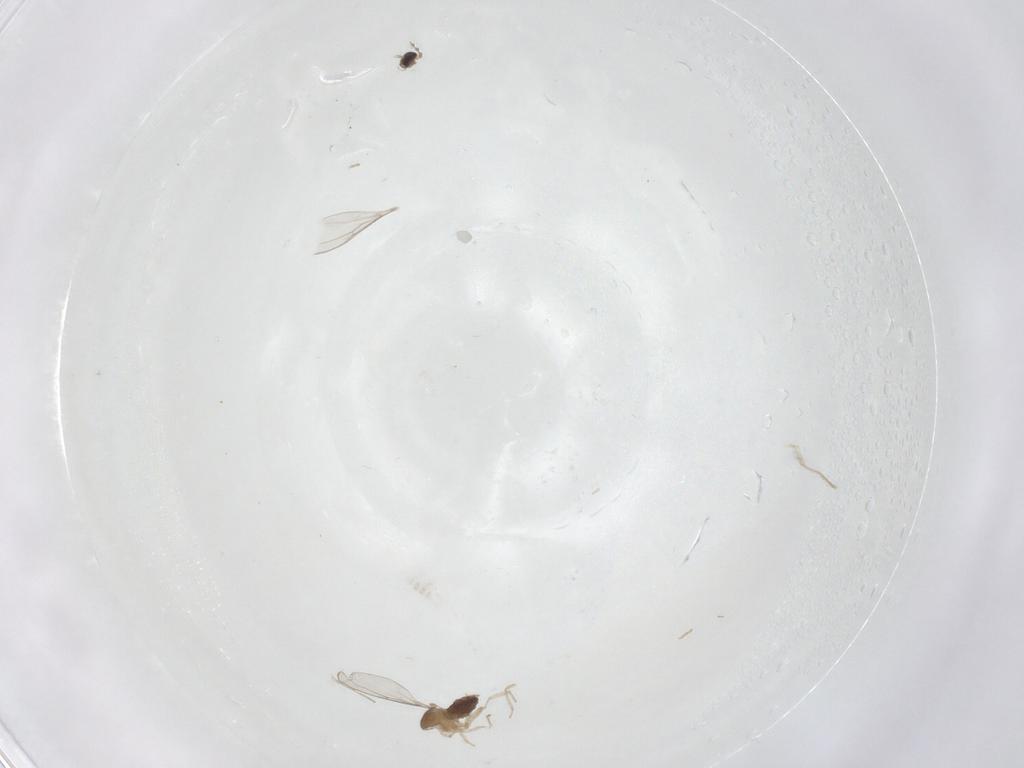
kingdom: Animalia
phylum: Arthropoda
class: Insecta
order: Diptera
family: Cecidomyiidae
